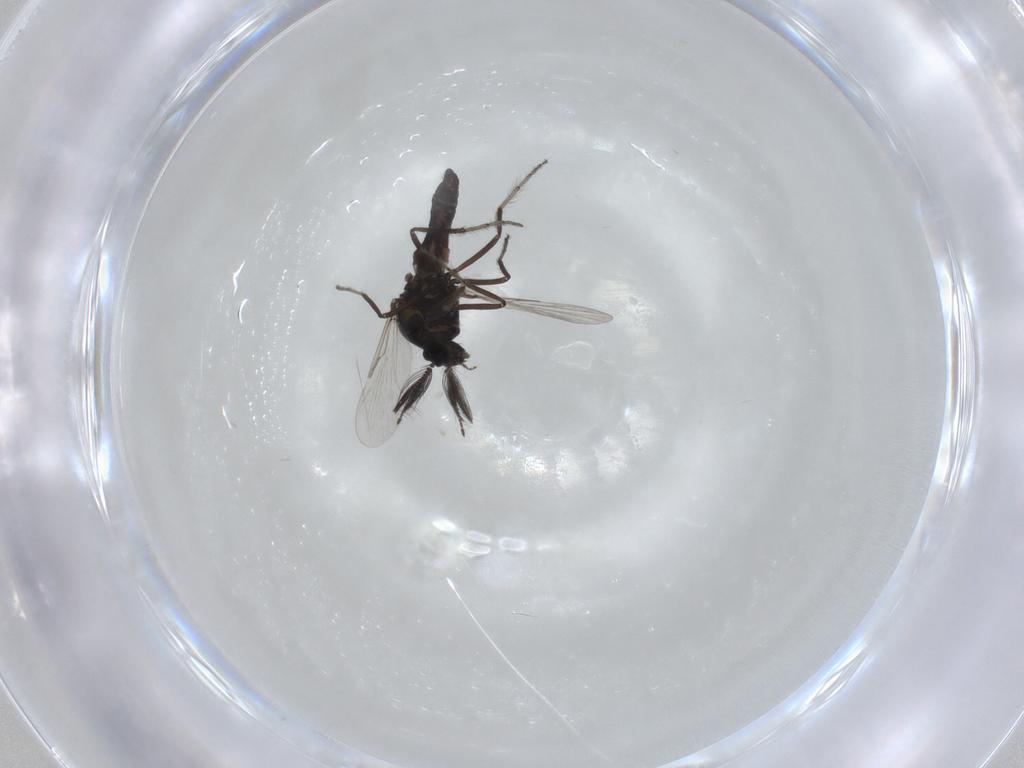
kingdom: Animalia
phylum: Arthropoda
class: Insecta
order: Diptera
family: Ceratopogonidae
